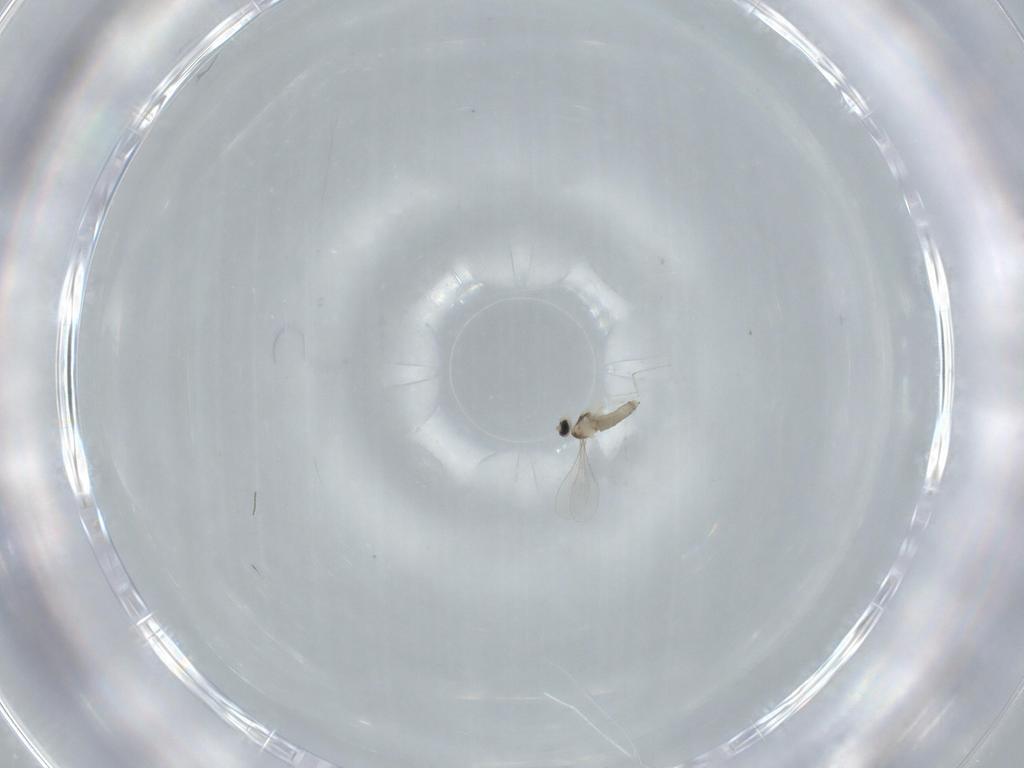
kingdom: Animalia
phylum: Arthropoda
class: Insecta
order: Diptera
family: Cecidomyiidae
